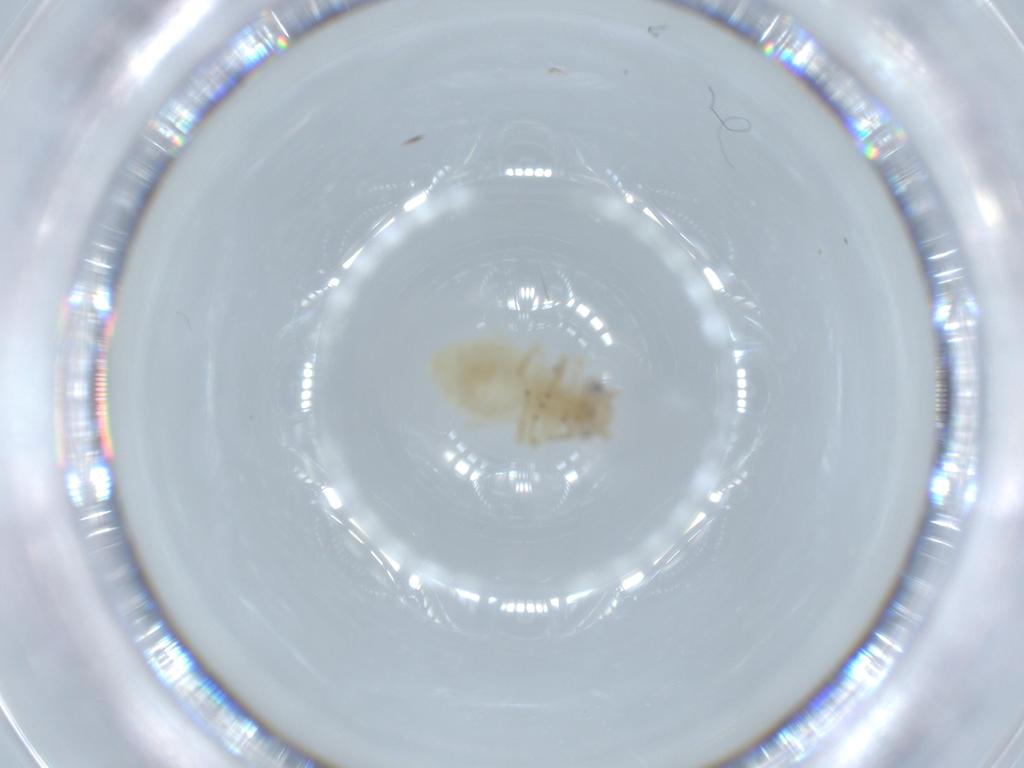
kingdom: Animalia
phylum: Arthropoda
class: Insecta
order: Psocodea
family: Caeciliusidae
